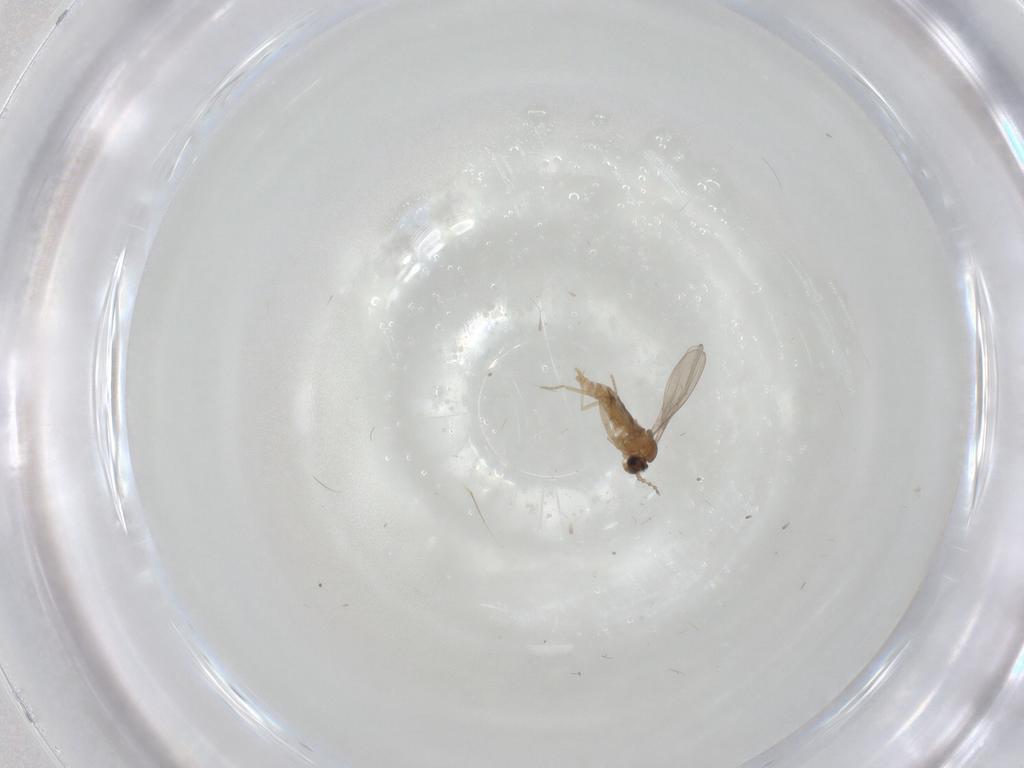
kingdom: Animalia
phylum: Arthropoda
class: Insecta
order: Diptera
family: Cecidomyiidae
